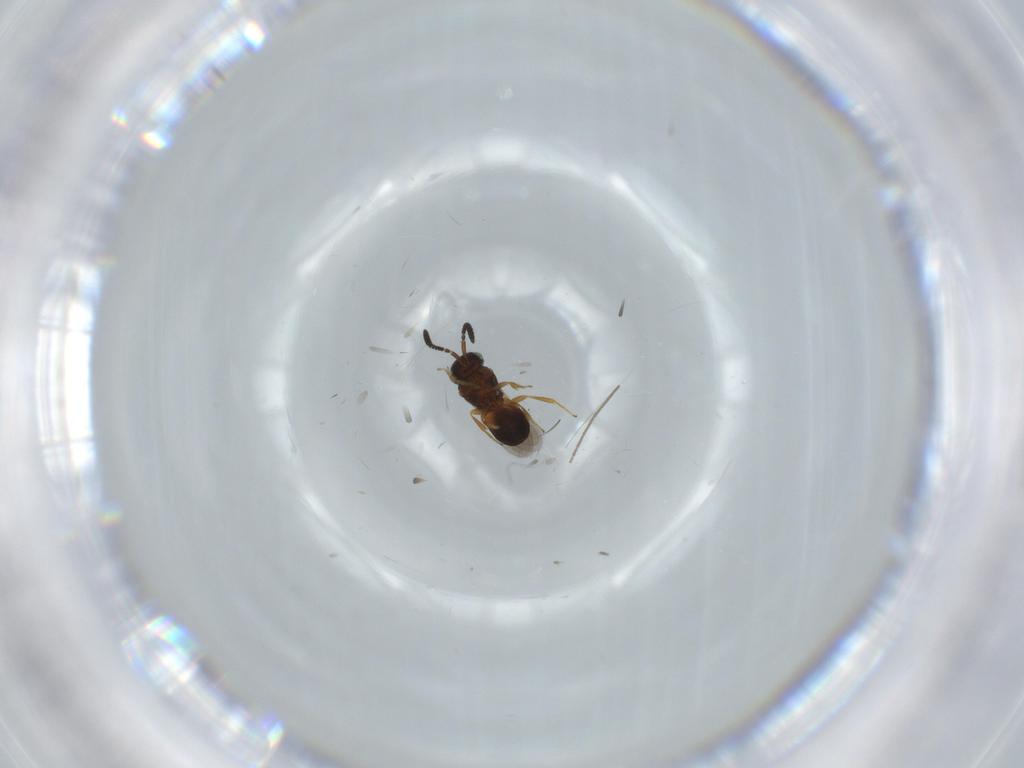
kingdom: Animalia
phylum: Arthropoda
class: Insecta
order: Hymenoptera
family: Scelionidae
